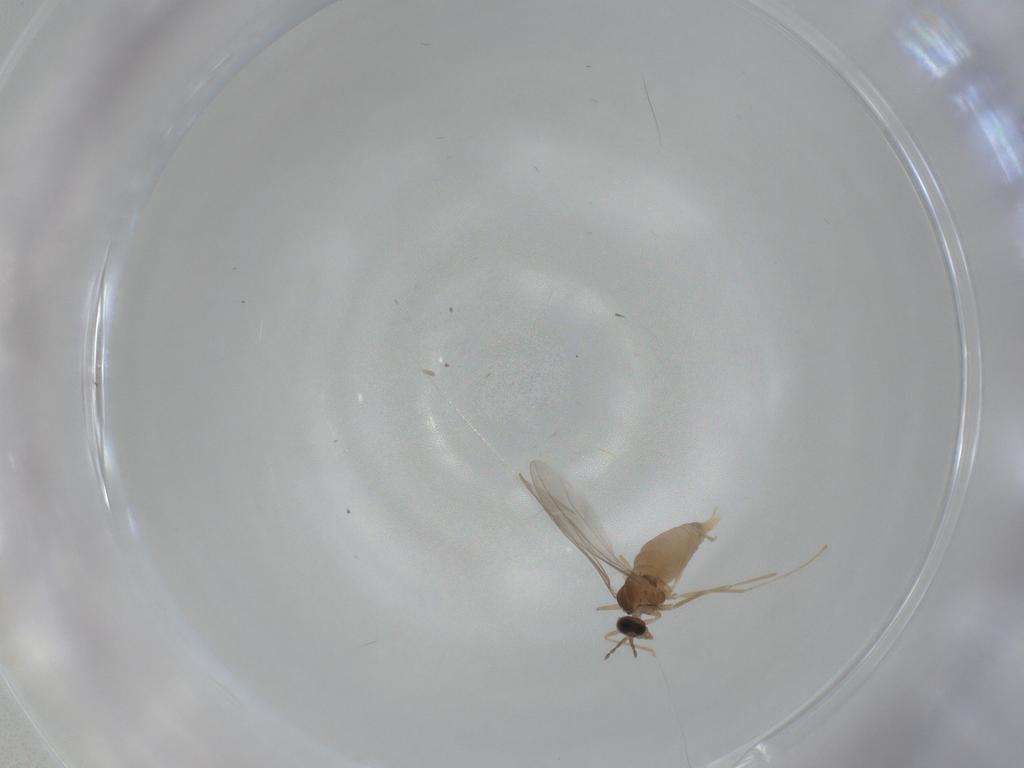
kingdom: Animalia
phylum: Arthropoda
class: Insecta
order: Diptera
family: Cecidomyiidae
